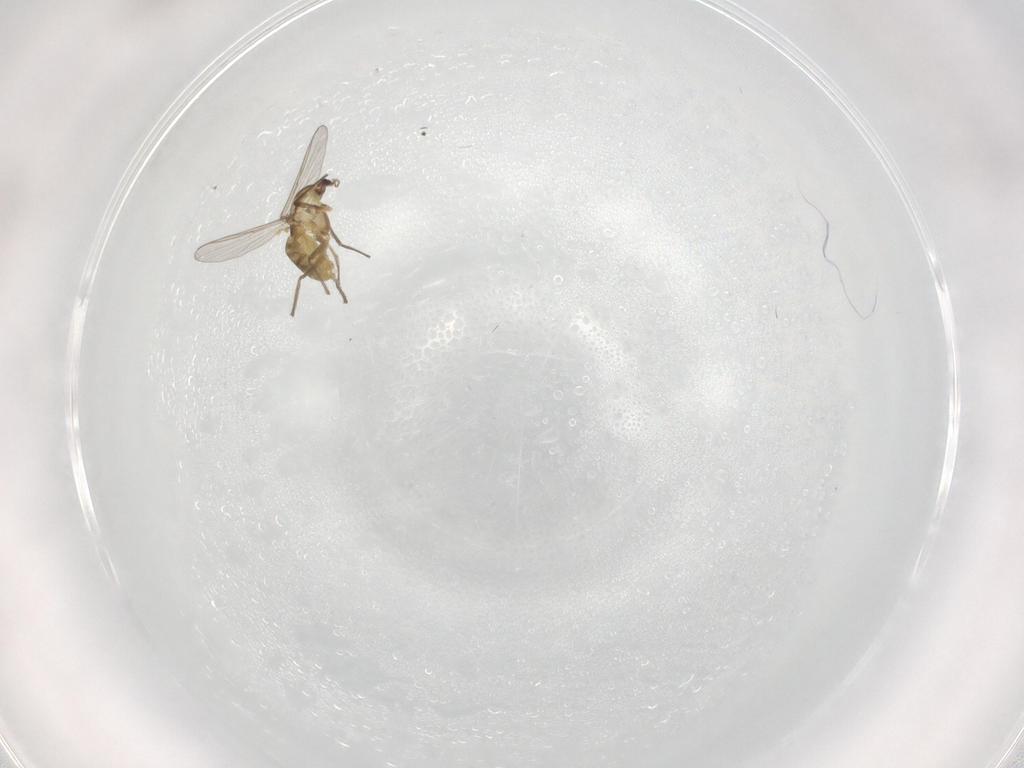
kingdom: Animalia
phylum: Arthropoda
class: Insecta
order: Diptera
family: Chironomidae
